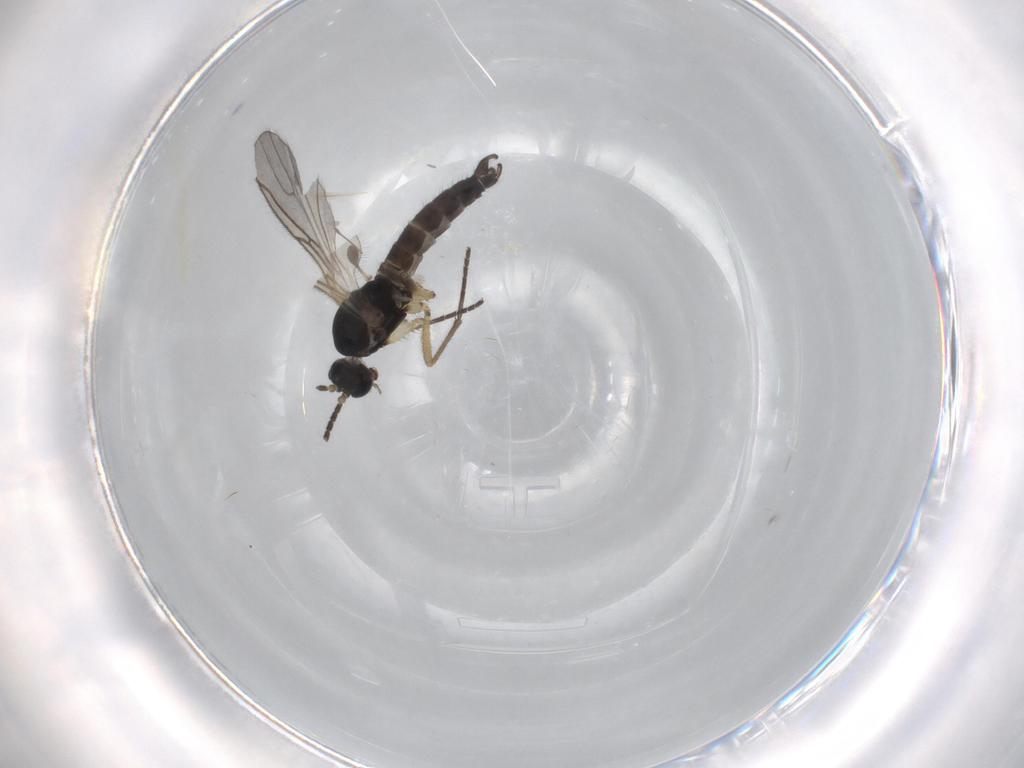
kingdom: Animalia
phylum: Arthropoda
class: Insecta
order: Diptera
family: Sciaridae
